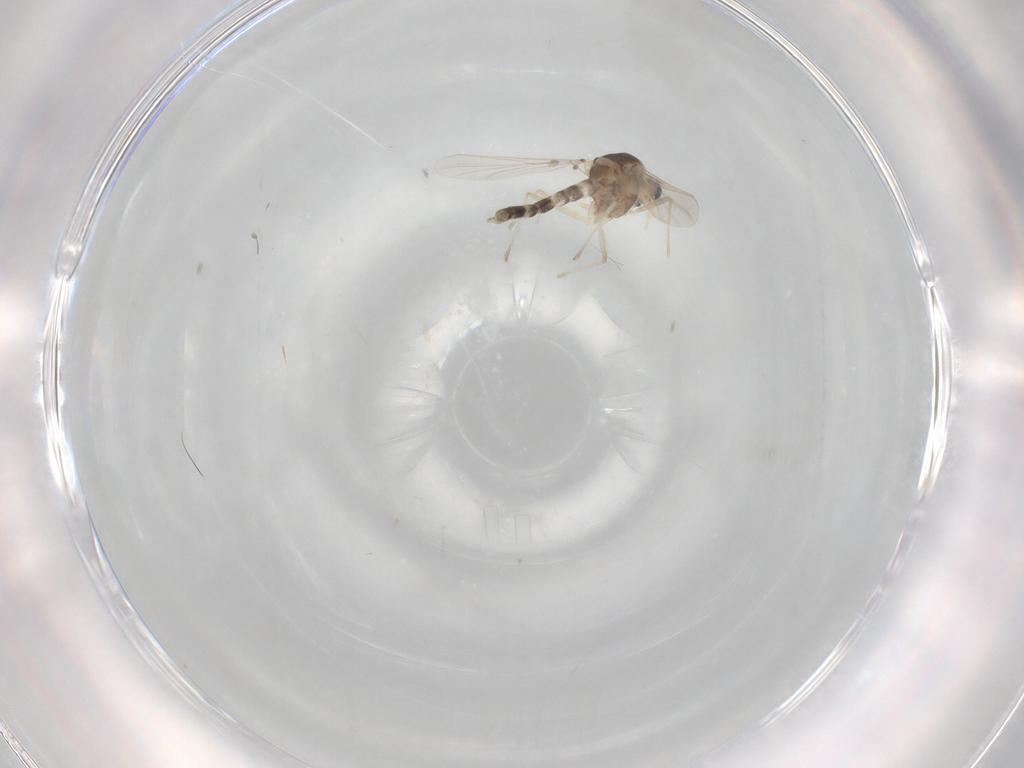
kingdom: Animalia
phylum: Arthropoda
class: Insecta
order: Diptera
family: Chironomidae
